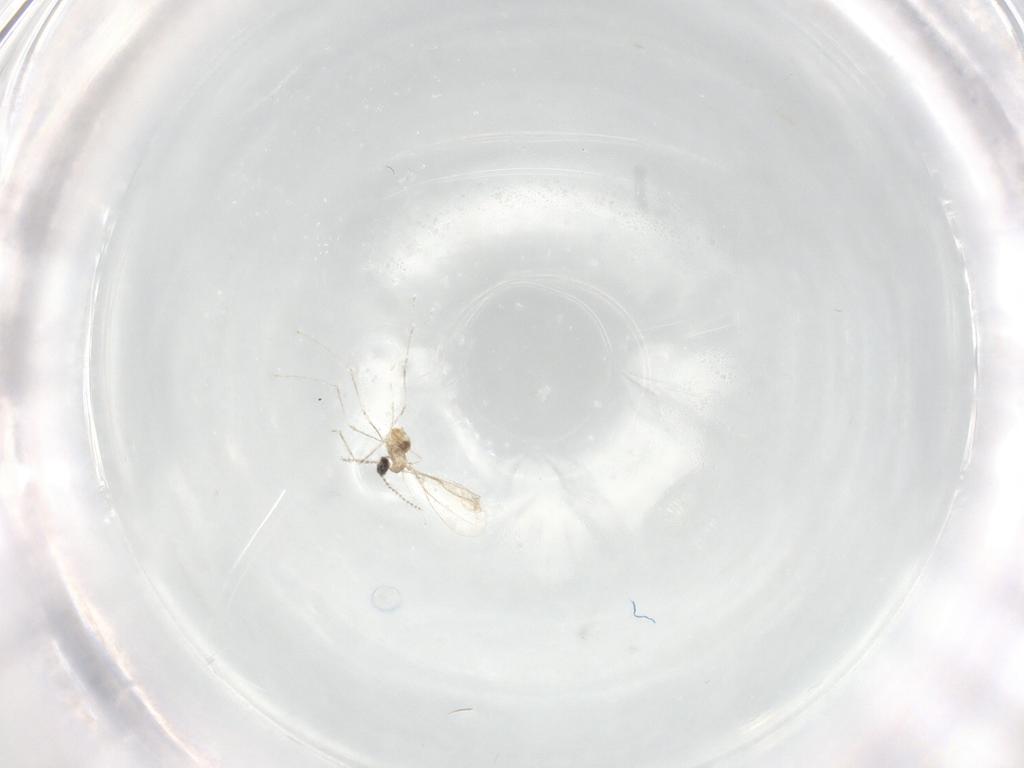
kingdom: Animalia
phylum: Arthropoda
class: Insecta
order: Diptera
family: Cecidomyiidae
